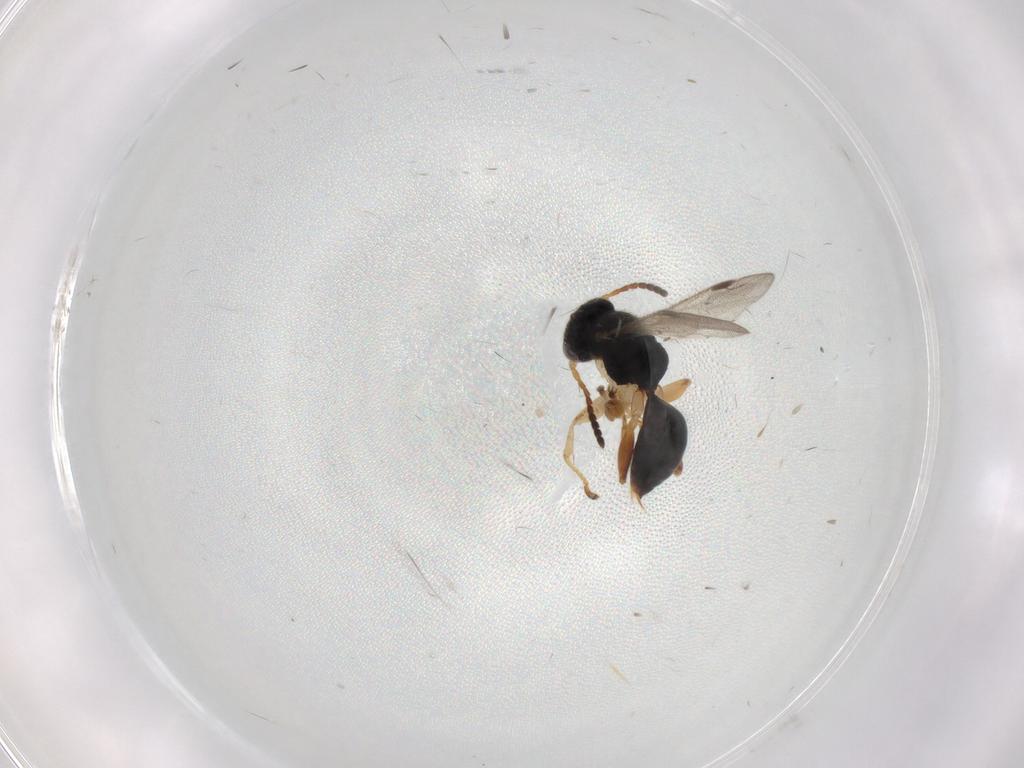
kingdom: Animalia
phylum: Arthropoda
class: Insecta
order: Hymenoptera
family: Dryinidae
